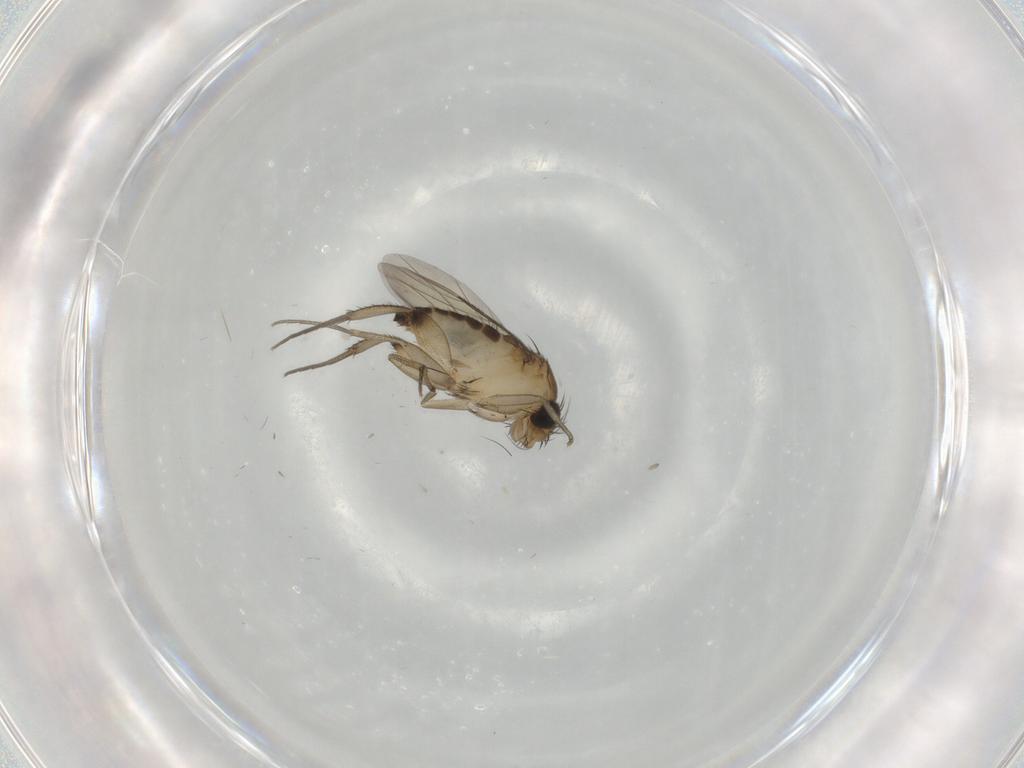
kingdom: Animalia
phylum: Arthropoda
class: Insecta
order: Diptera
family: Phoridae
